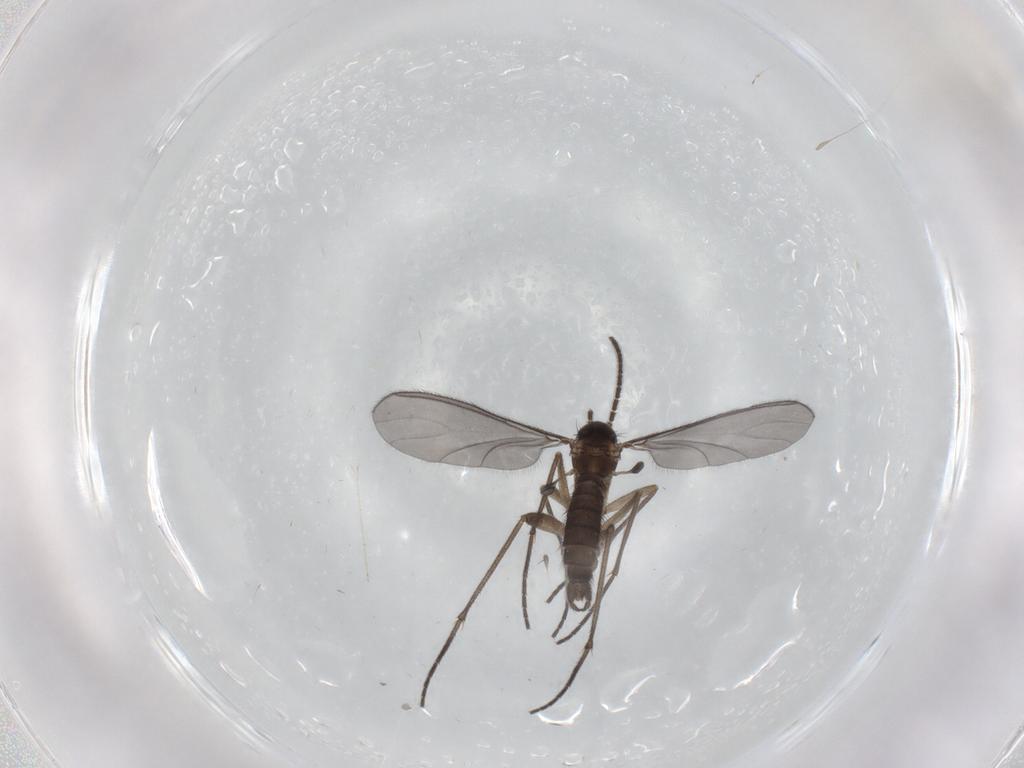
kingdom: Animalia
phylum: Arthropoda
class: Insecta
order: Diptera
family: Sciaridae
